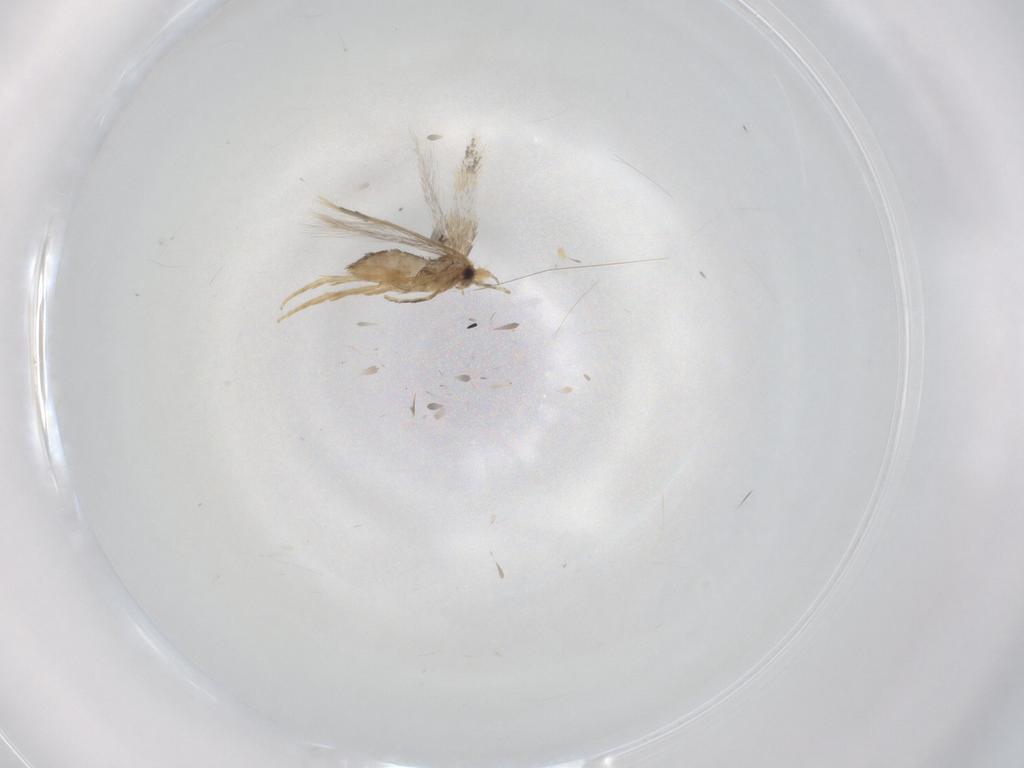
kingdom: Animalia
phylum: Arthropoda
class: Insecta
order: Lepidoptera
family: Nepticulidae
